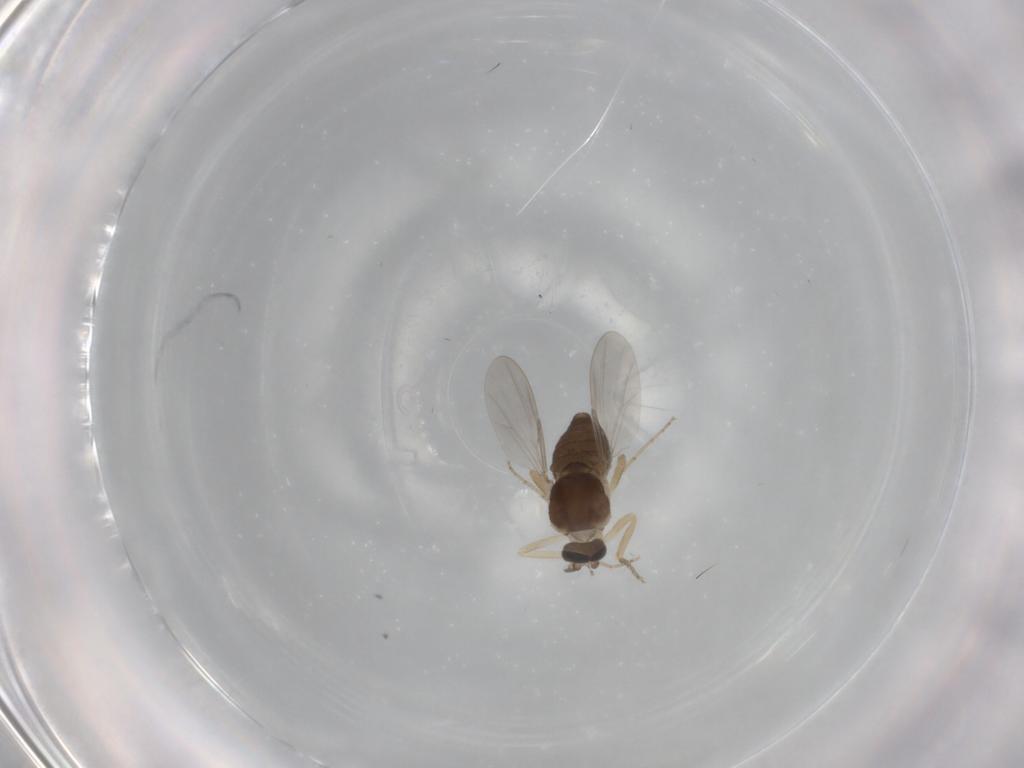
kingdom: Animalia
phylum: Arthropoda
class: Insecta
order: Diptera
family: Ceratopogonidae
